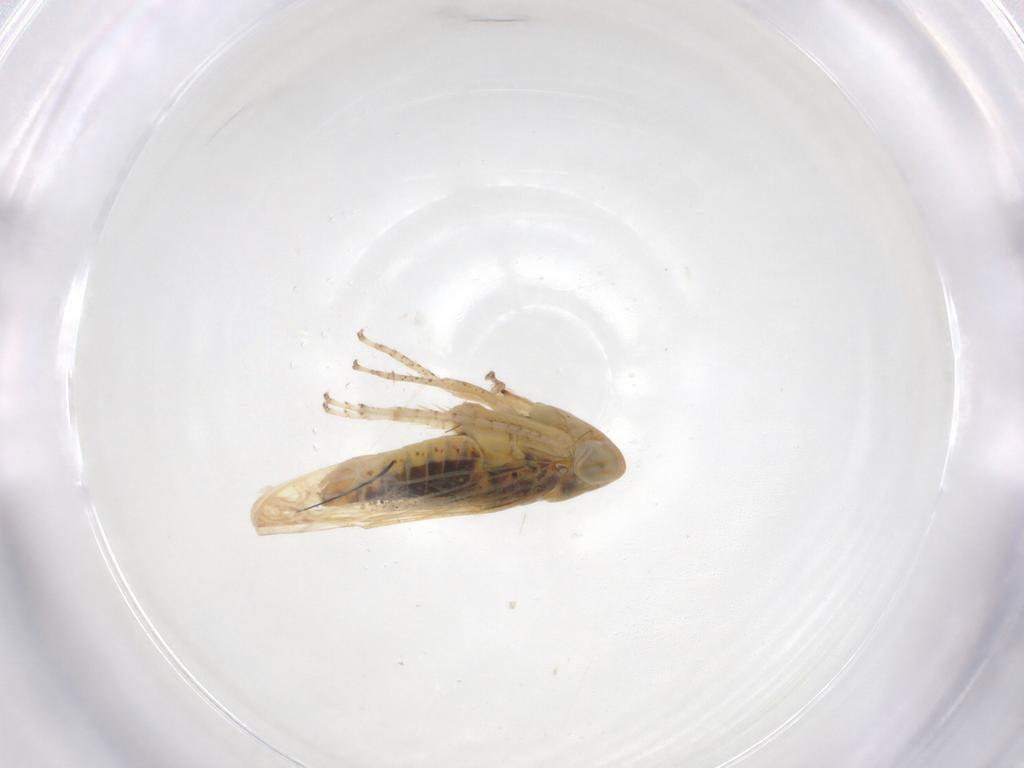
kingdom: Animalia
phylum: Arthropoda
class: Insecta
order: Hemiptera
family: Cicadellidae
